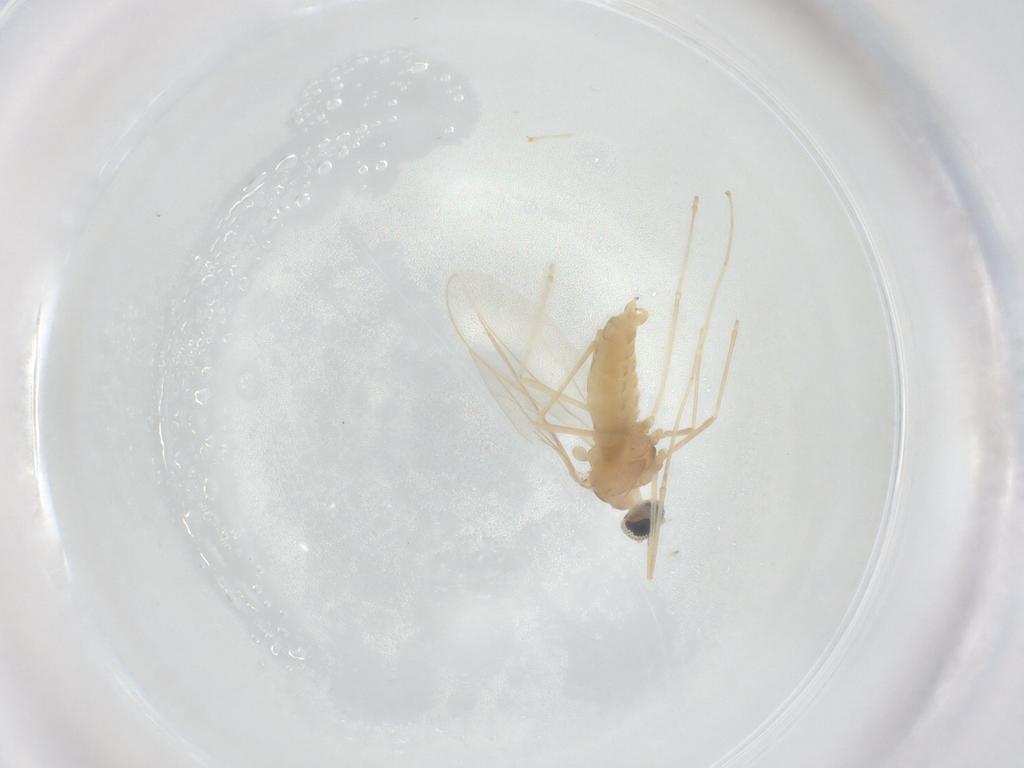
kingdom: Animalia
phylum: Arthropoda
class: Insecta
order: Diptera
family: Cecidomyiidae
